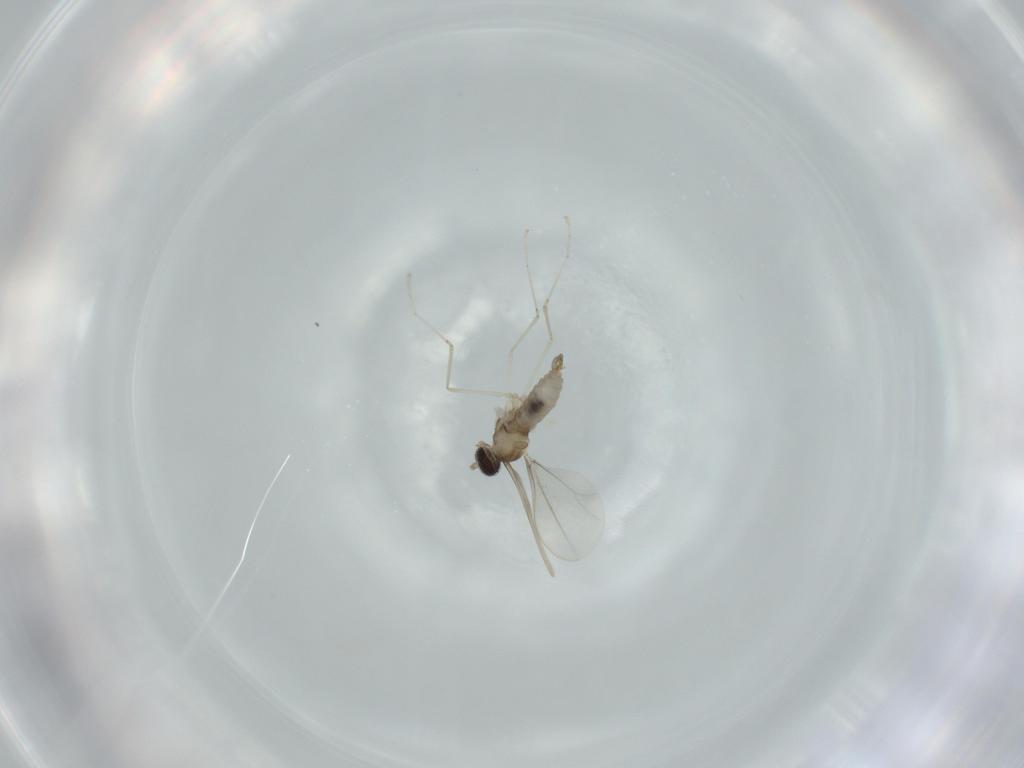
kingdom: Animalia
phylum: Arthropoda
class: Insecta
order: Diptera
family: Cecidomyiidae
